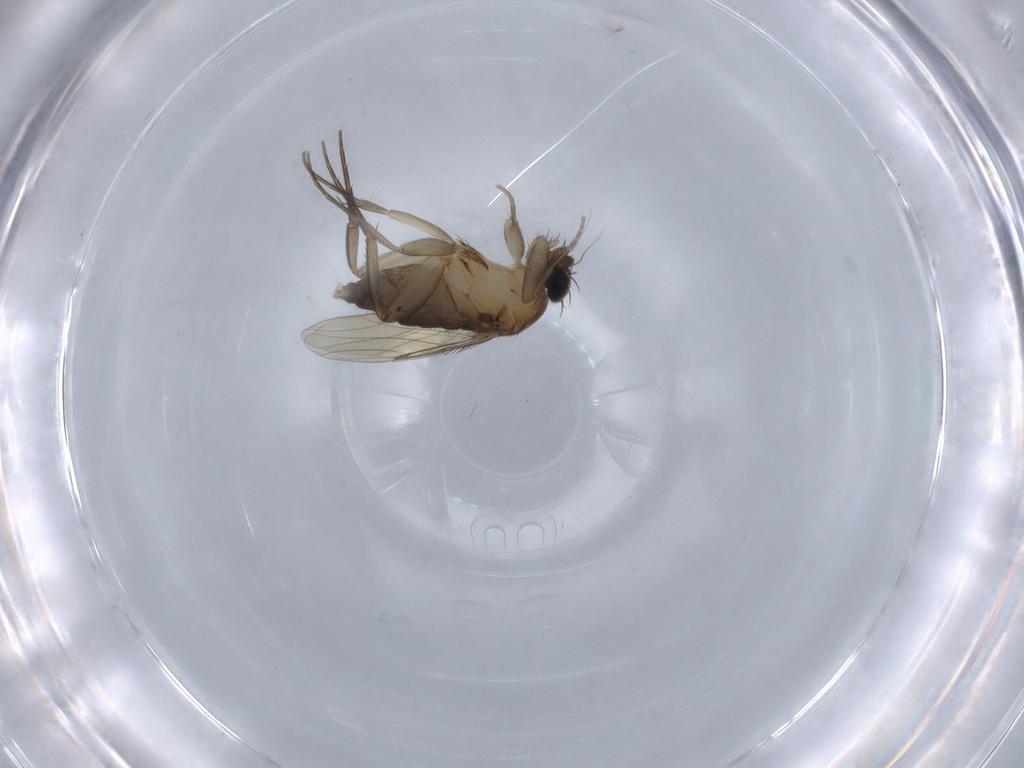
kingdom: Animalia
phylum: Arthropoda
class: Insecta
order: Diptera
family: Phoridae
